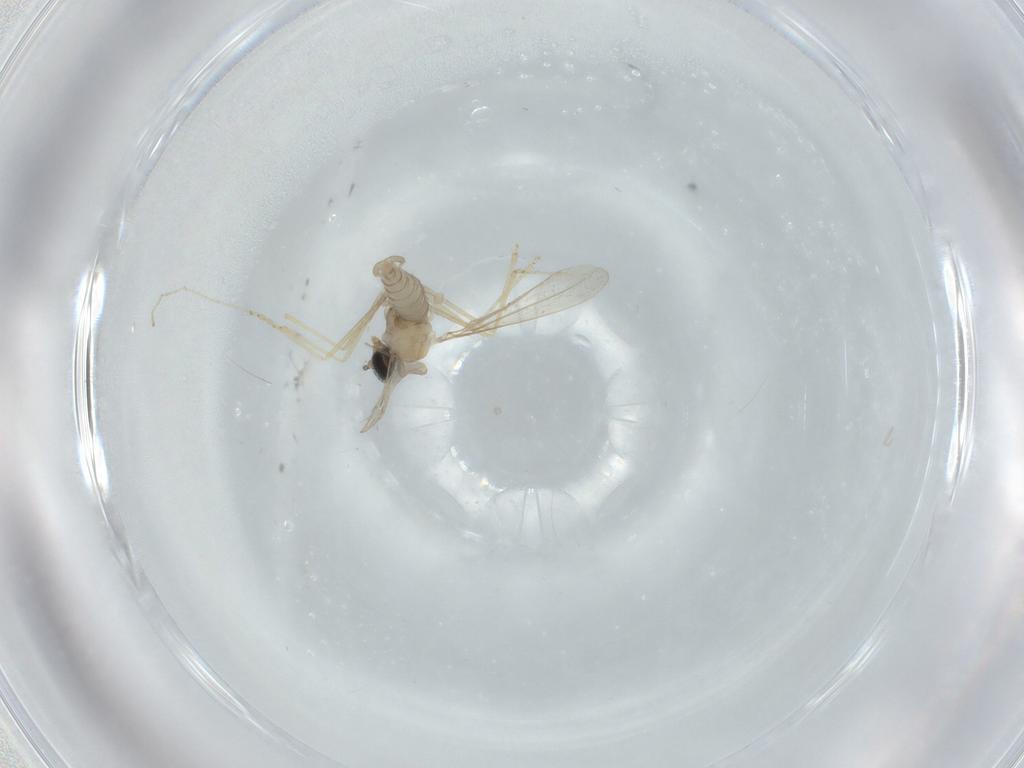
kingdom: Animalia
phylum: Arthropoda
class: Insecta
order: Diptera
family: Cecidomyiidae
